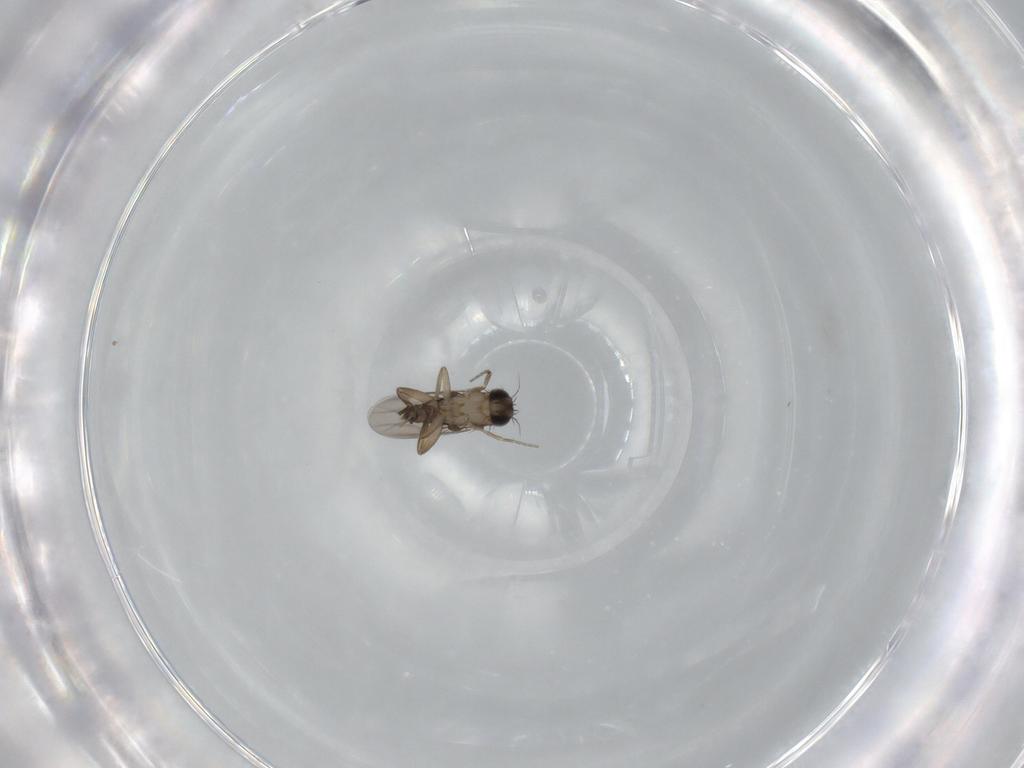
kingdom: Animalia
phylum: Arthropoda
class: Insecta
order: Diptera
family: Phoridae
